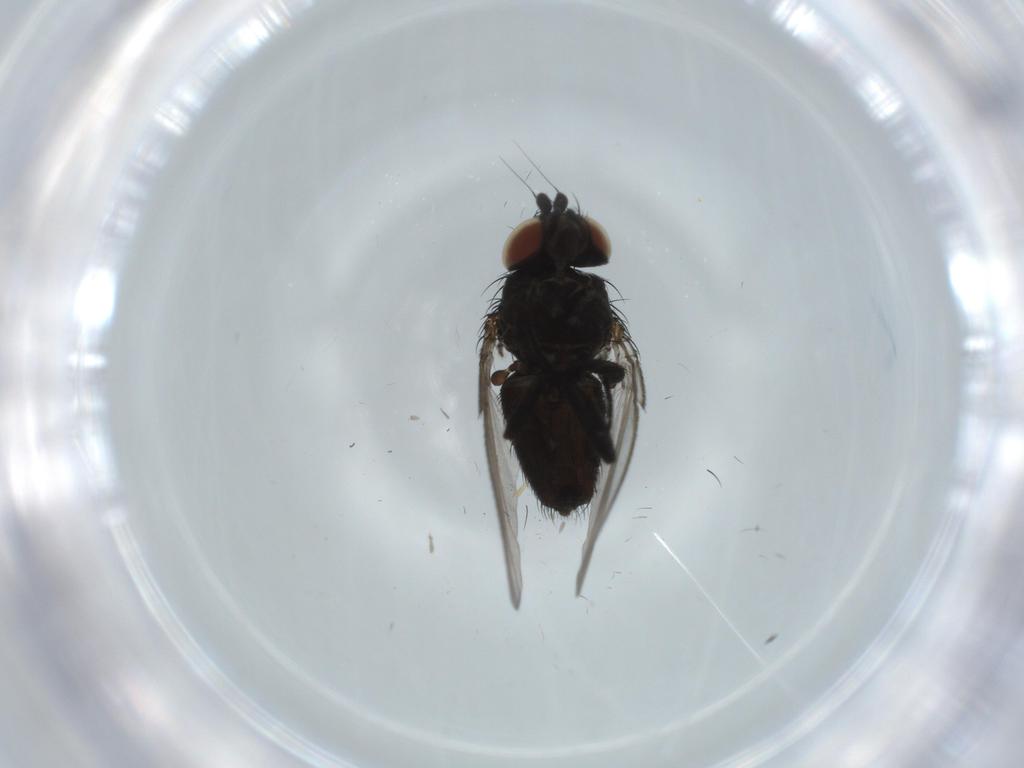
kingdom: Animalia
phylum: Arthropoda
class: Insecta
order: Diptera
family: Milichiidae
